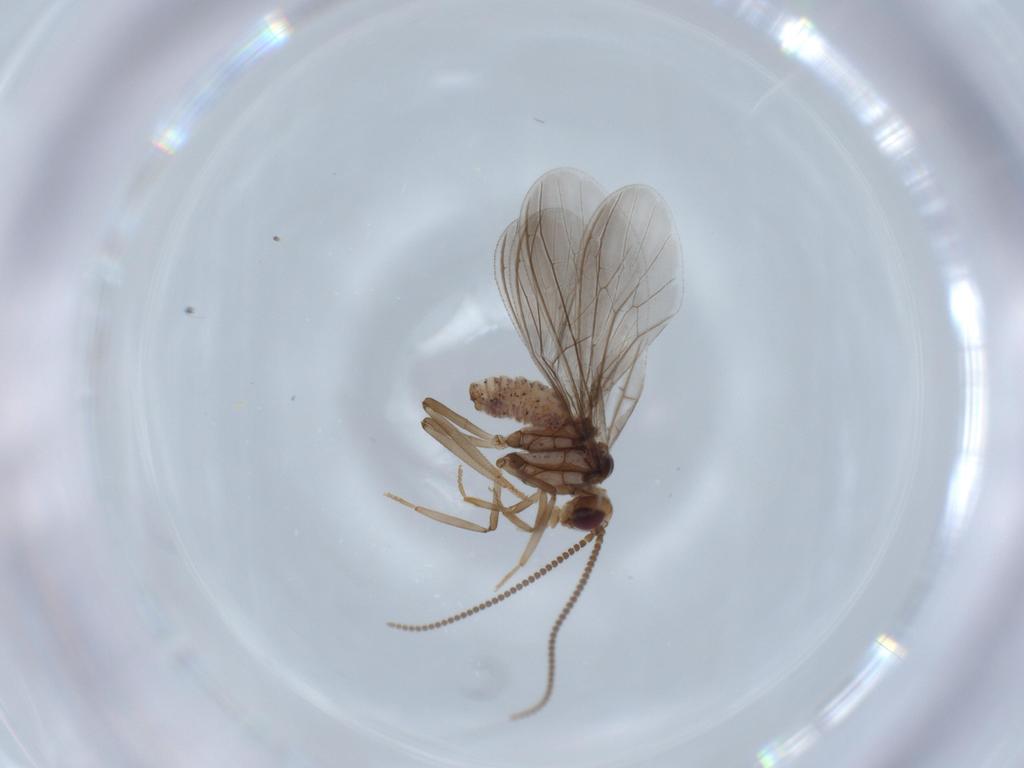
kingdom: Animalia
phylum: Arthropoda
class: Insecta
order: Neuroptera
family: Coniopterygidae
